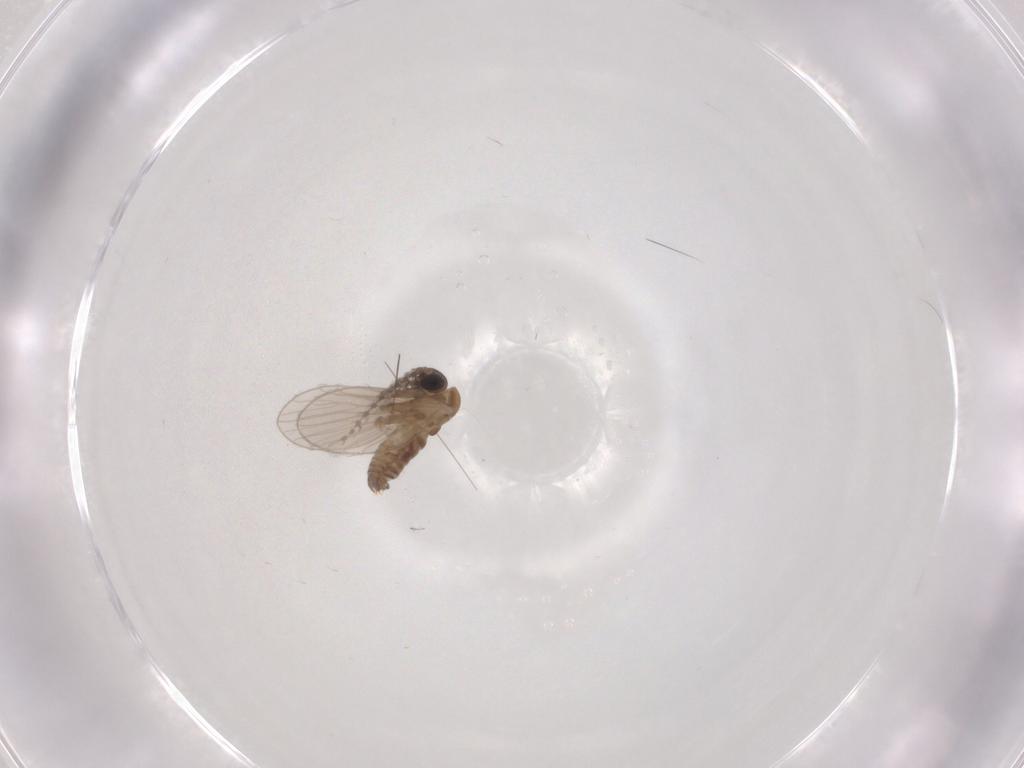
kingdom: Animalia
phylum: Arthropoda
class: Insecta
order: Diptera
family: Psychodidae
